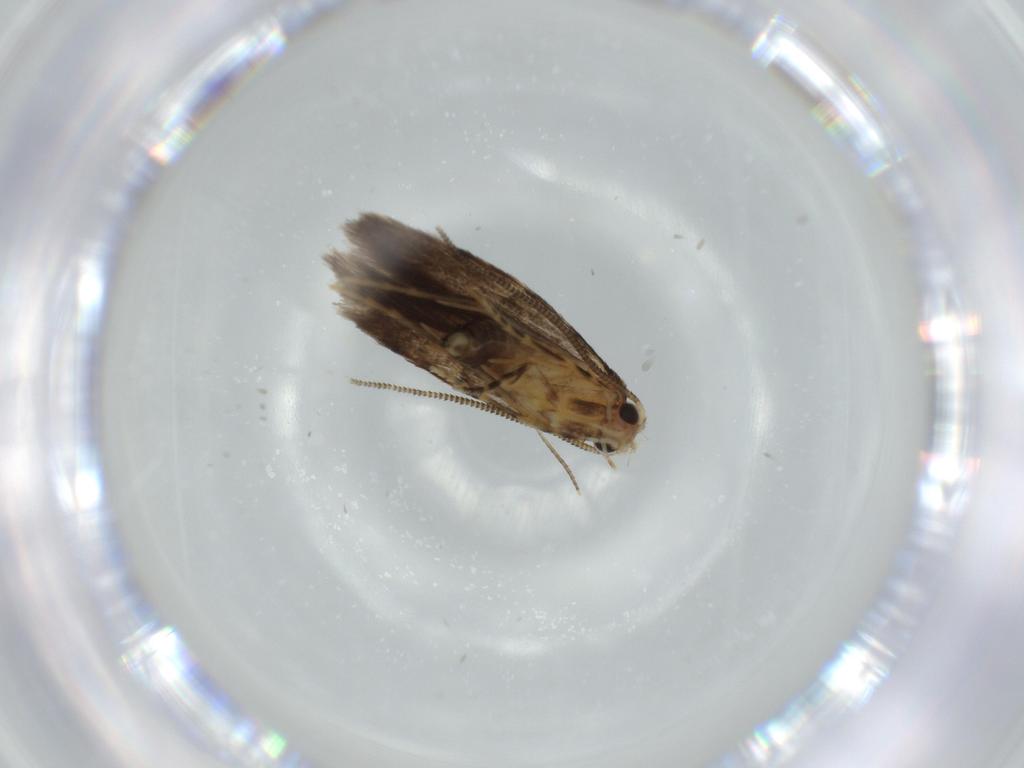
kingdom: Animalia
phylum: Arthropoda
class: Insecta
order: Lepidoptera
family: Tineidae
